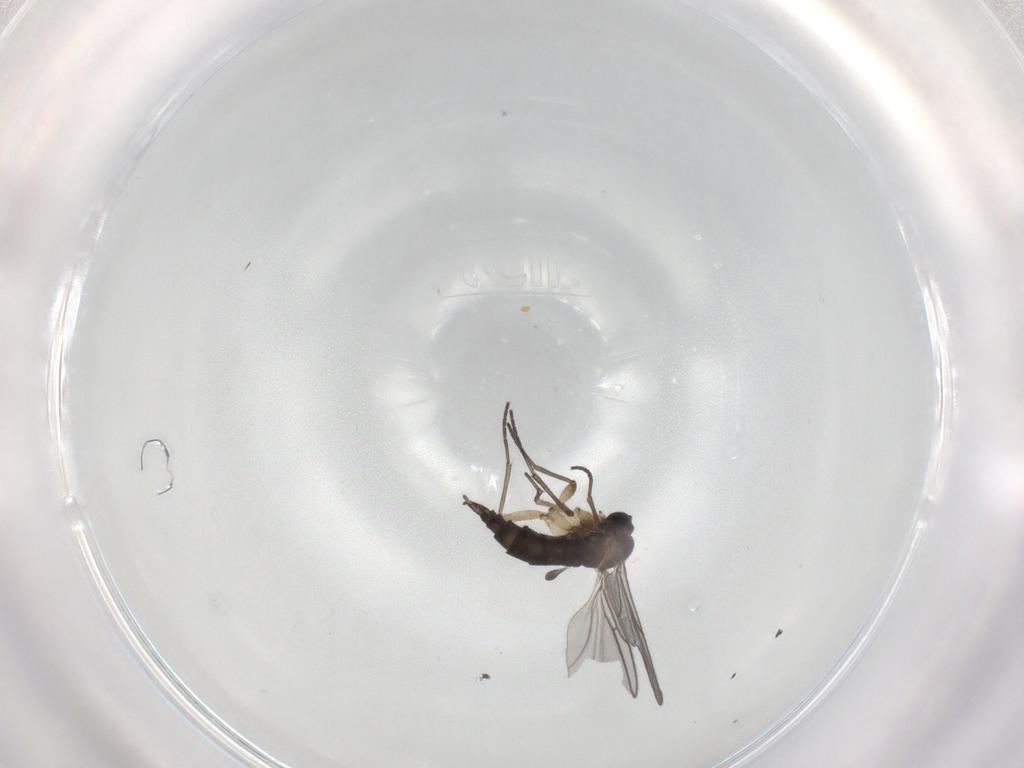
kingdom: Animalia
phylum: Arthropoda
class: Insecta
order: Diptera
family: Sciaridae
